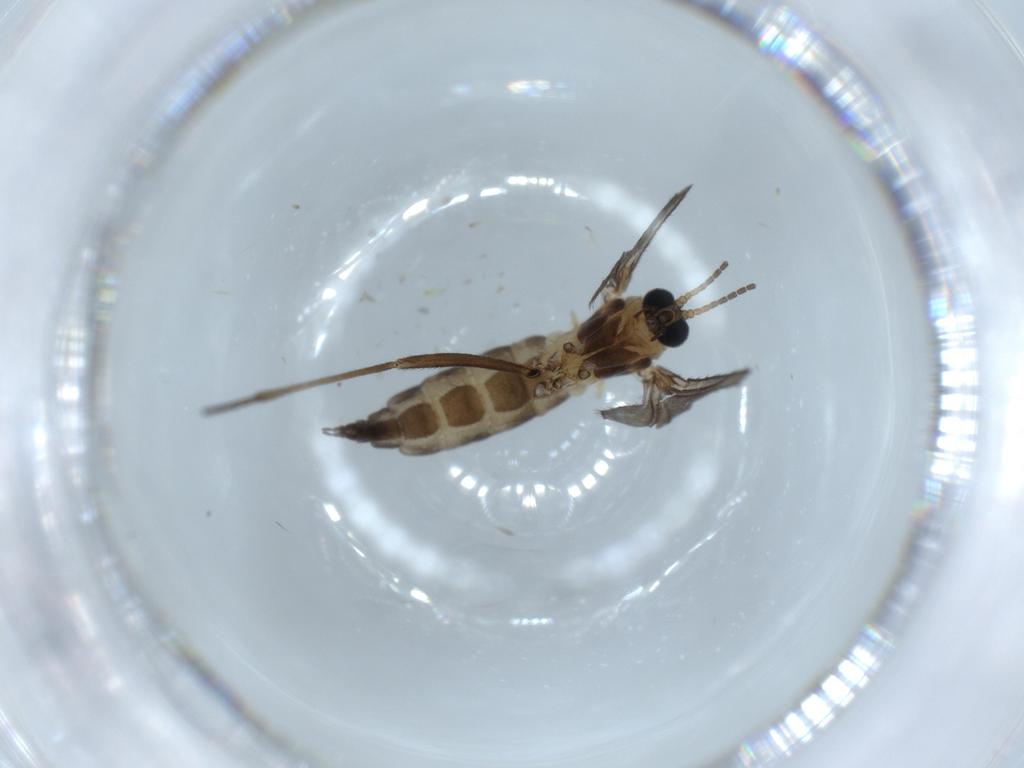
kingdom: Animalia
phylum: Arthropoda
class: Insecta
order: Diptera
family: Sciaridae
